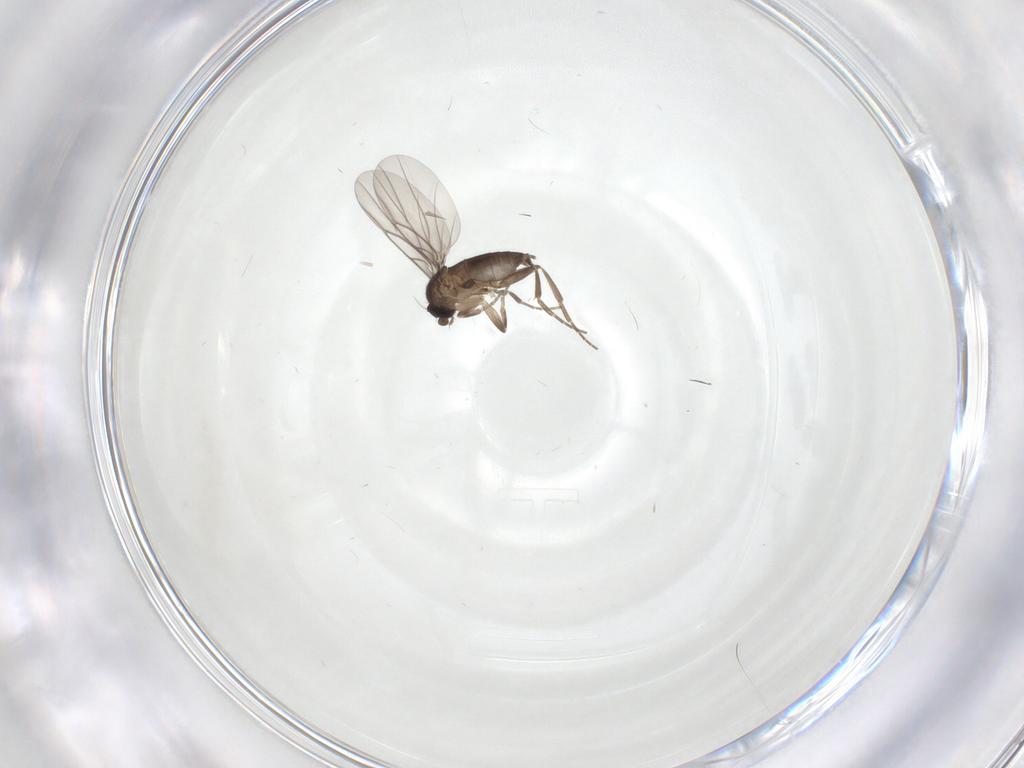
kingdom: Animalia
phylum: Arthropoda
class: Insecta
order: Diptera
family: Phoridae
